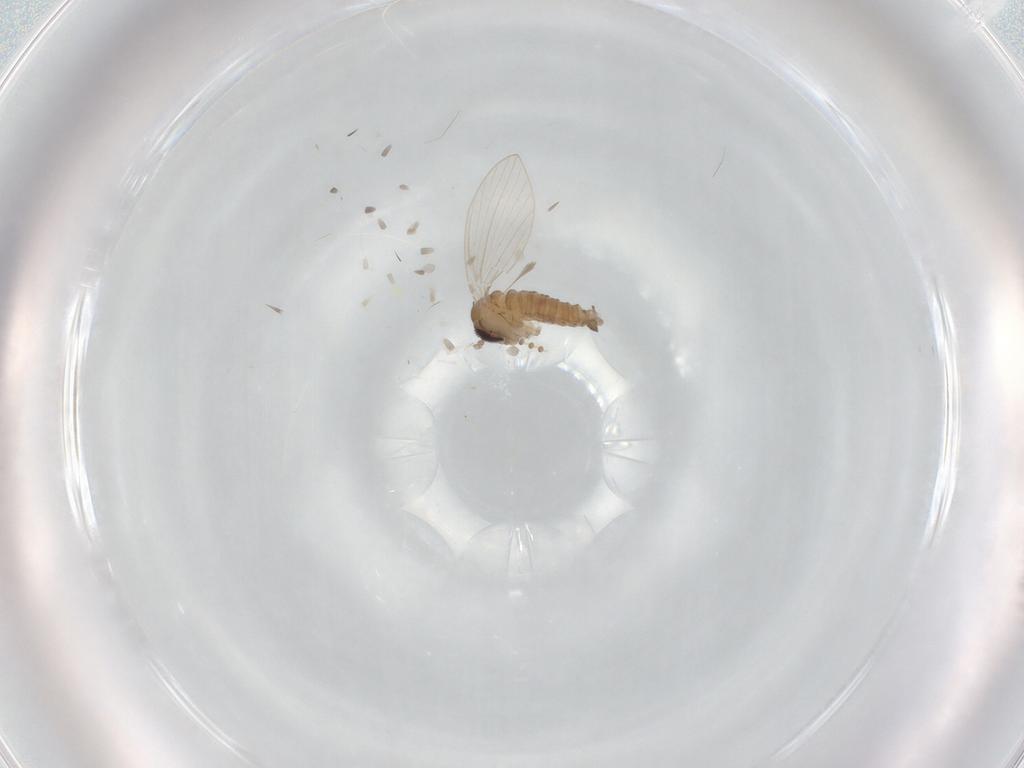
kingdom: Animalia
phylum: Arthropoda
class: Insecta
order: Diptera
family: Psychodidae
